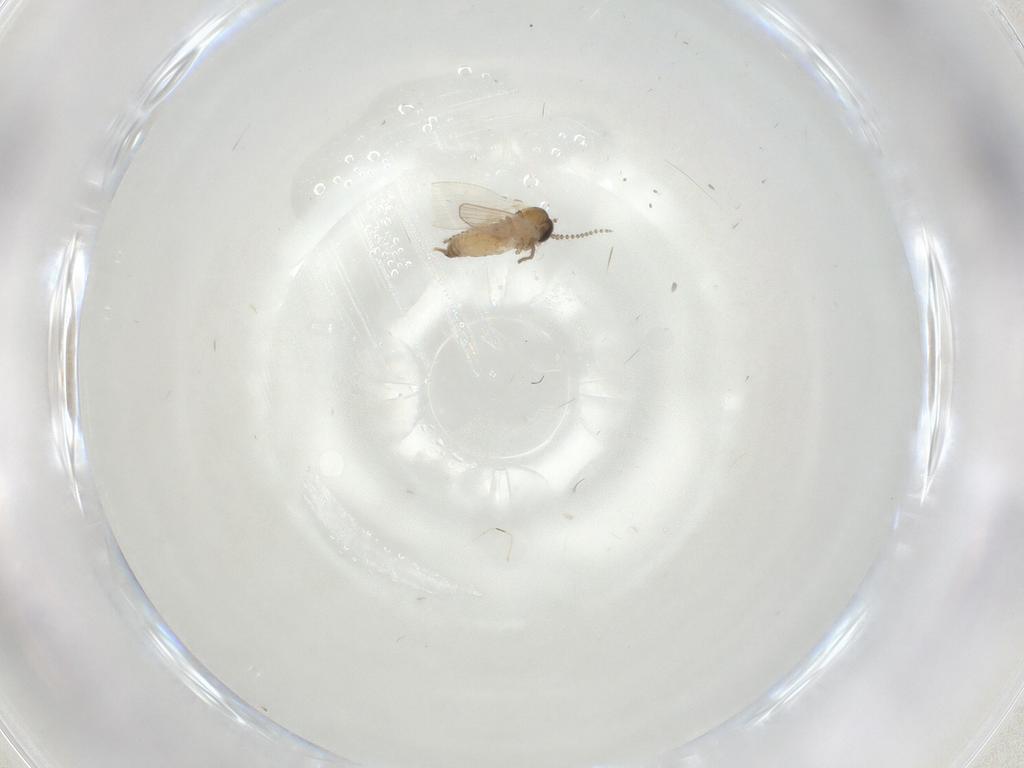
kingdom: Animalia
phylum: Arthropoda
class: Insecta
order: Diptera
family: Psychodidae
